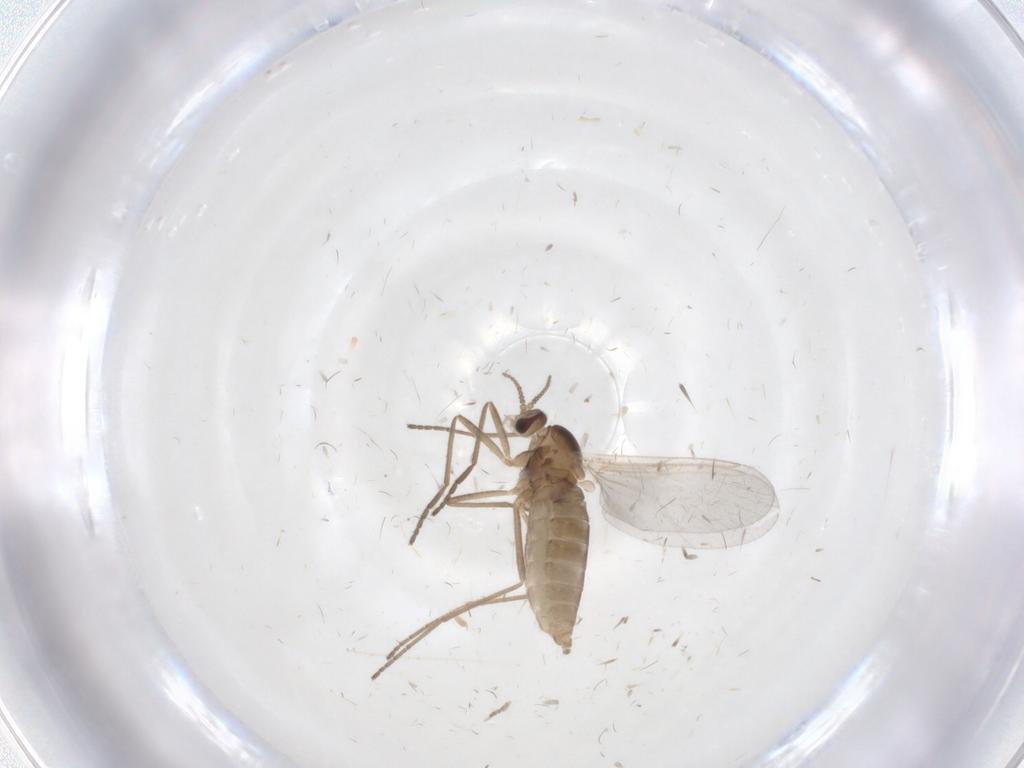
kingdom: Animalia
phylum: Arthropoda
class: Insecta
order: Diptera
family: Cecidomyiidae
